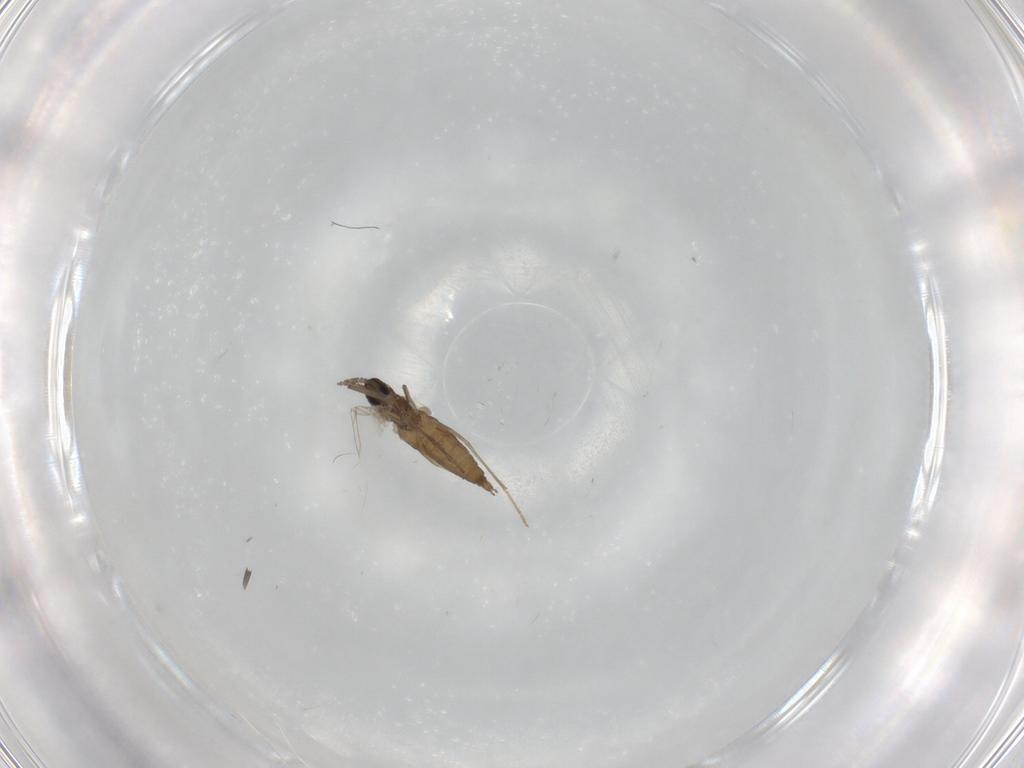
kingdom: Animalia
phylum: Arthropoda
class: Insecta
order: Diptera
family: Cecidomyiidae
